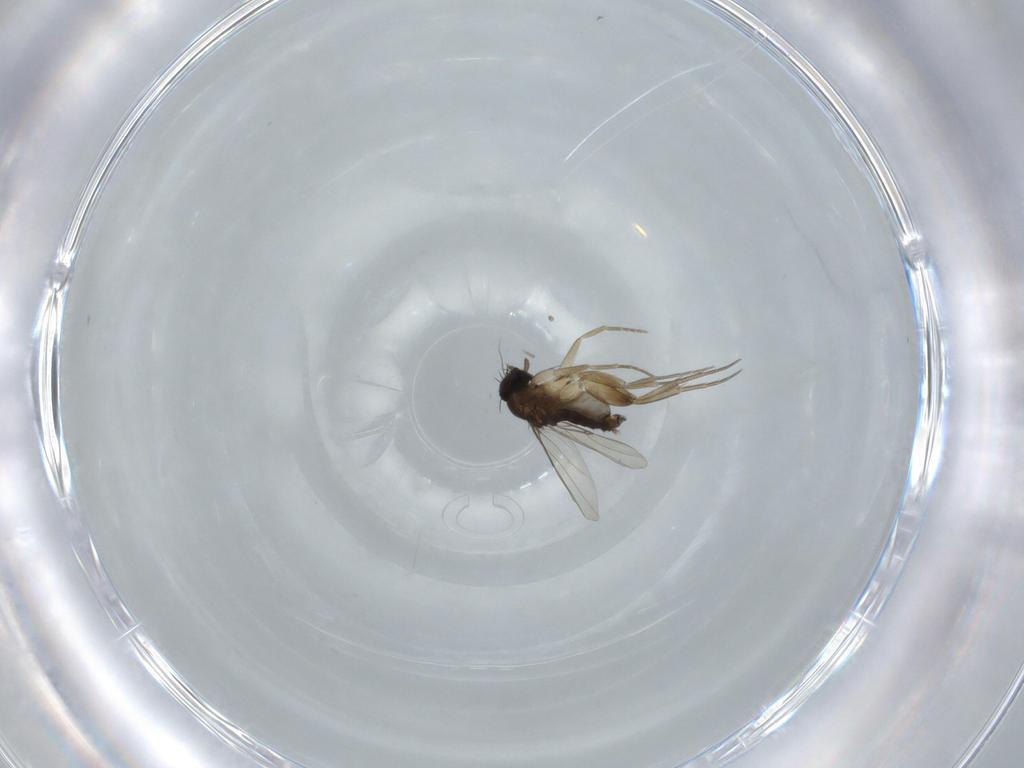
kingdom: Animalia
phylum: Arthropoda
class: Insecta
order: Diptera
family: Phoridae
